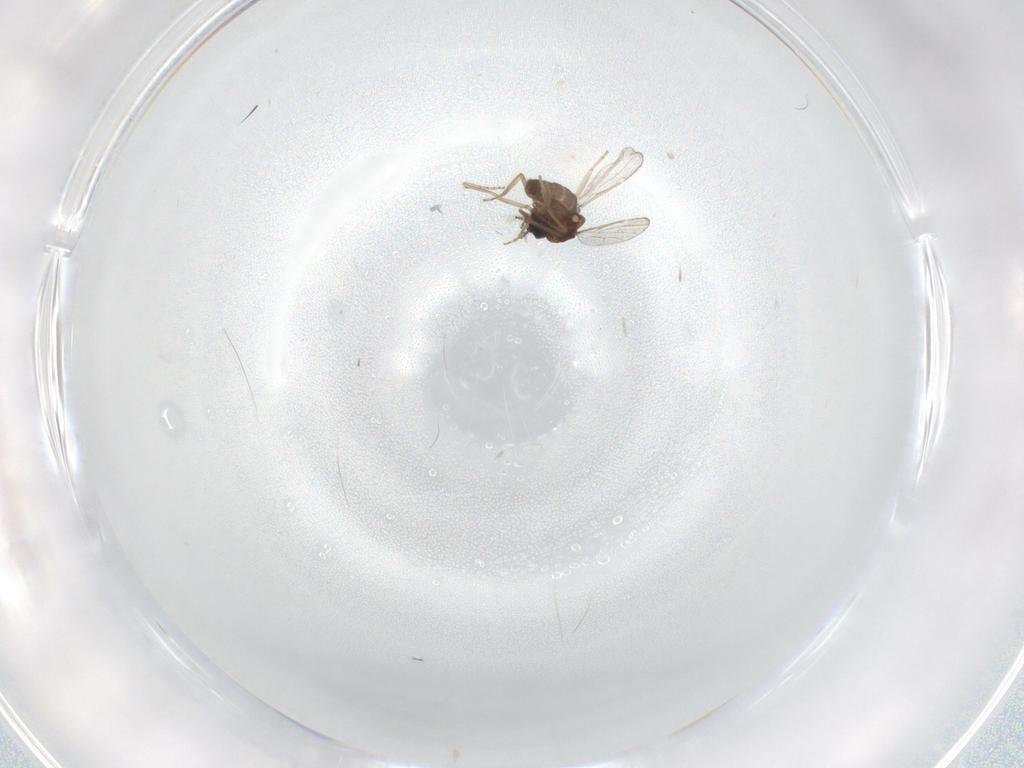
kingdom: Animalia
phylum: Arthropoda
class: Insecta
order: Diptera
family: Ceratopogonidae
